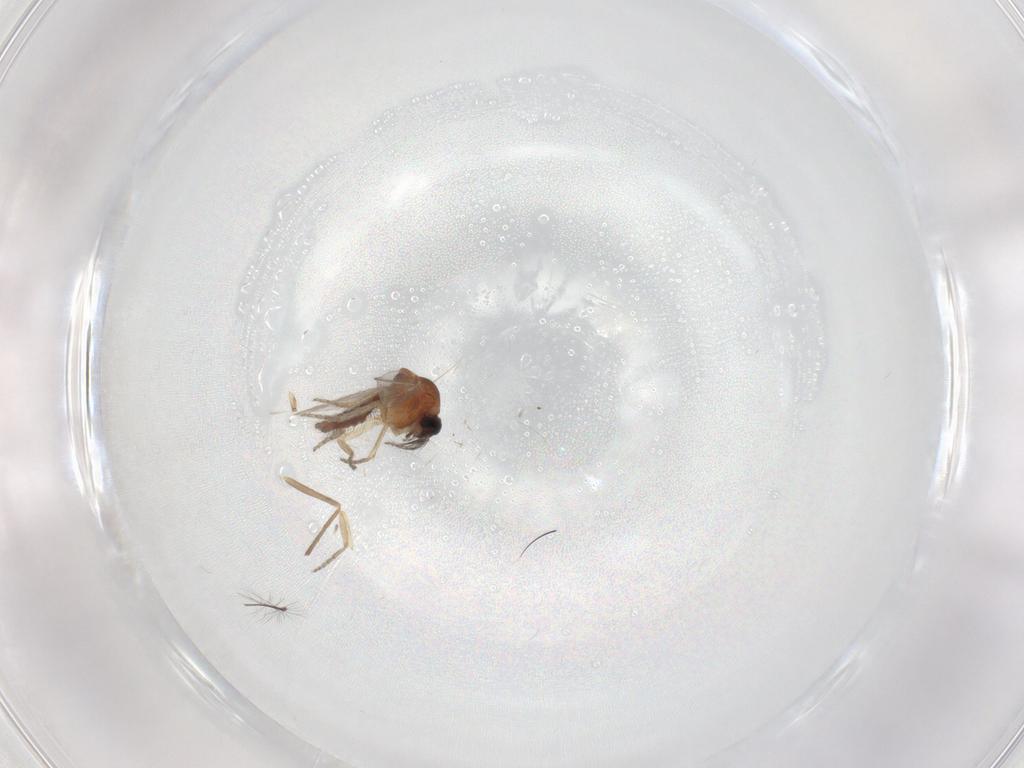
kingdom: Animalia
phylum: Arthropoda
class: Insecta
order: Diptera
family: Ceratopogonidae
